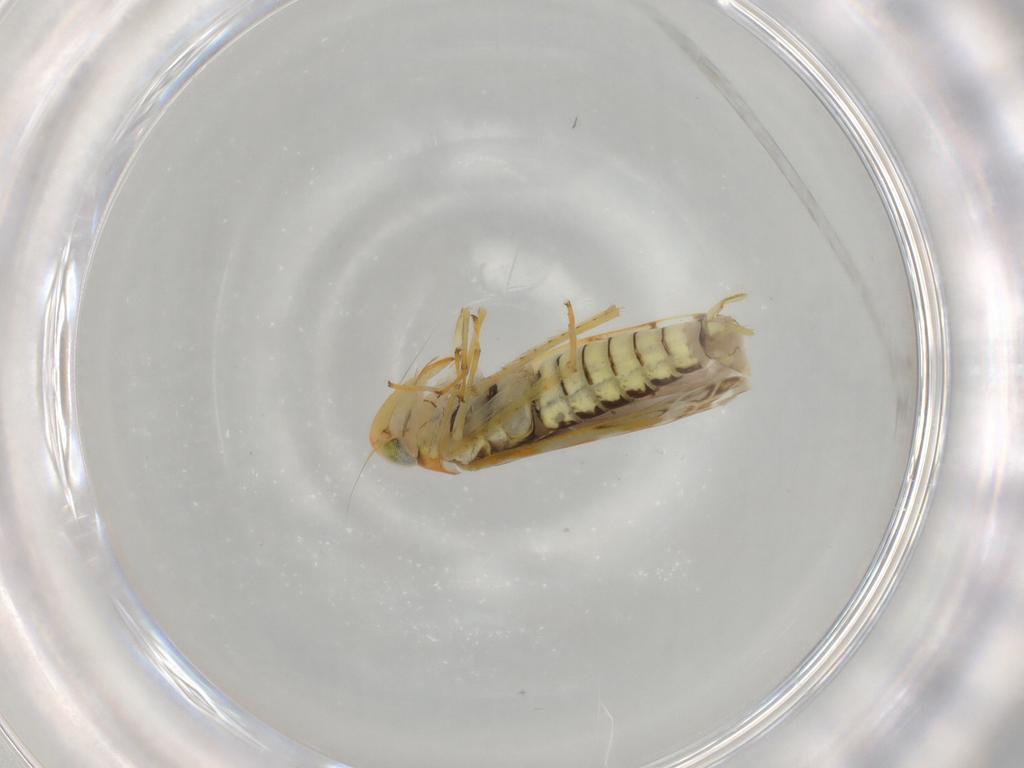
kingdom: Animalia
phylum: Arthropoda
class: Insecta
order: Hemiptera
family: Cicadellidae
